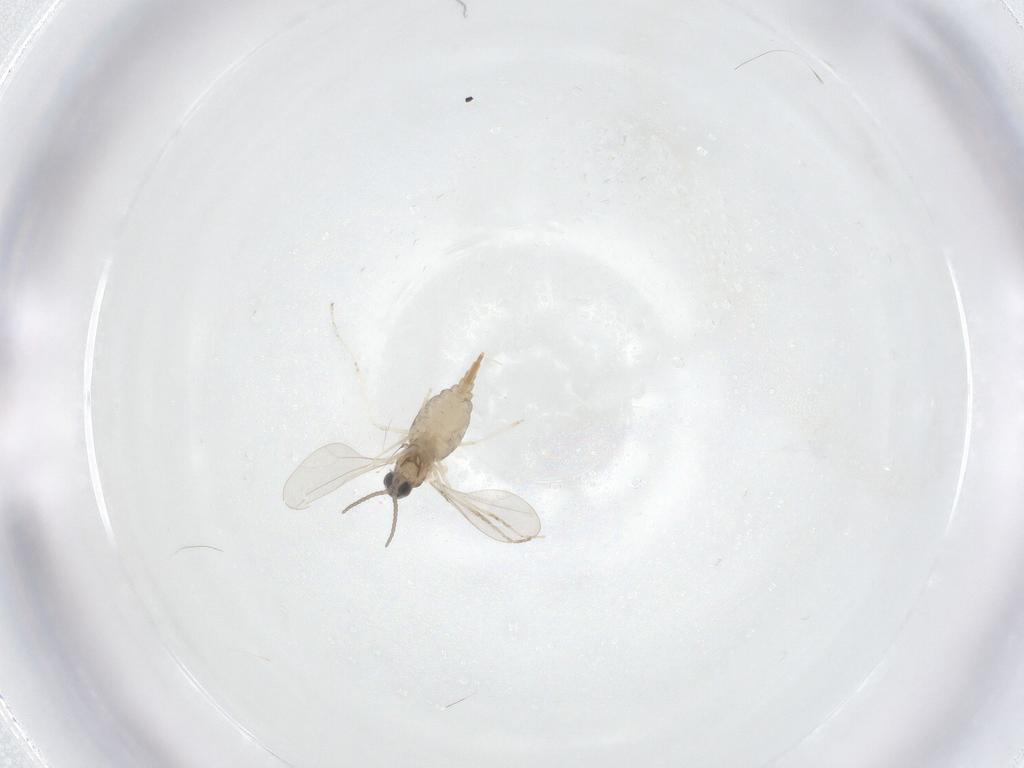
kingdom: Animalia
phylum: Arthropoda
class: Insecta
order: Diptera
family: Cecidomyiidae
